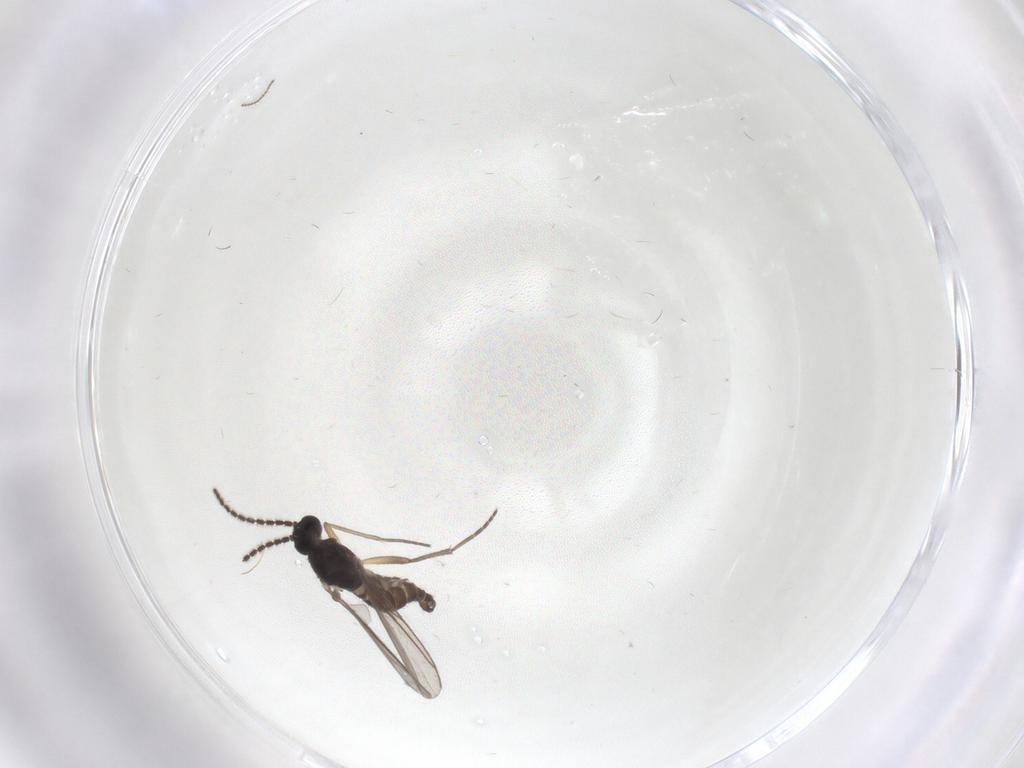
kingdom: Animalia
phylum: Arthropoda
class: Insecta
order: Diptera
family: Sciaridae
